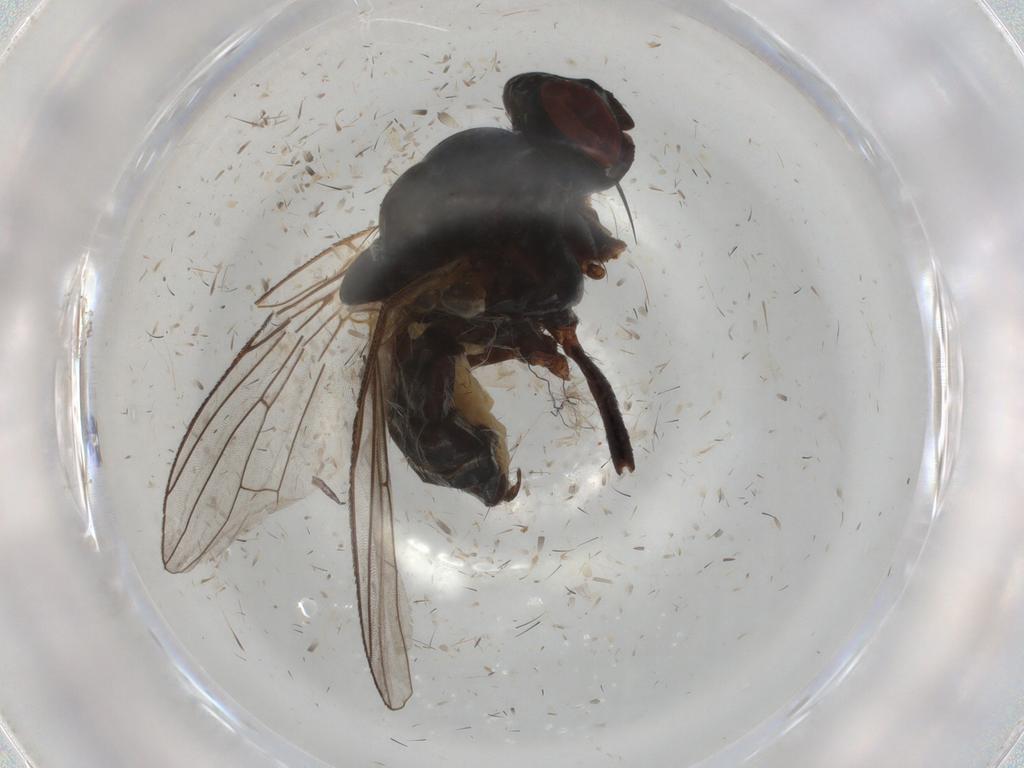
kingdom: Animalia
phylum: Arthropoda
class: Insecta
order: Diptera
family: Anthomyiidae
